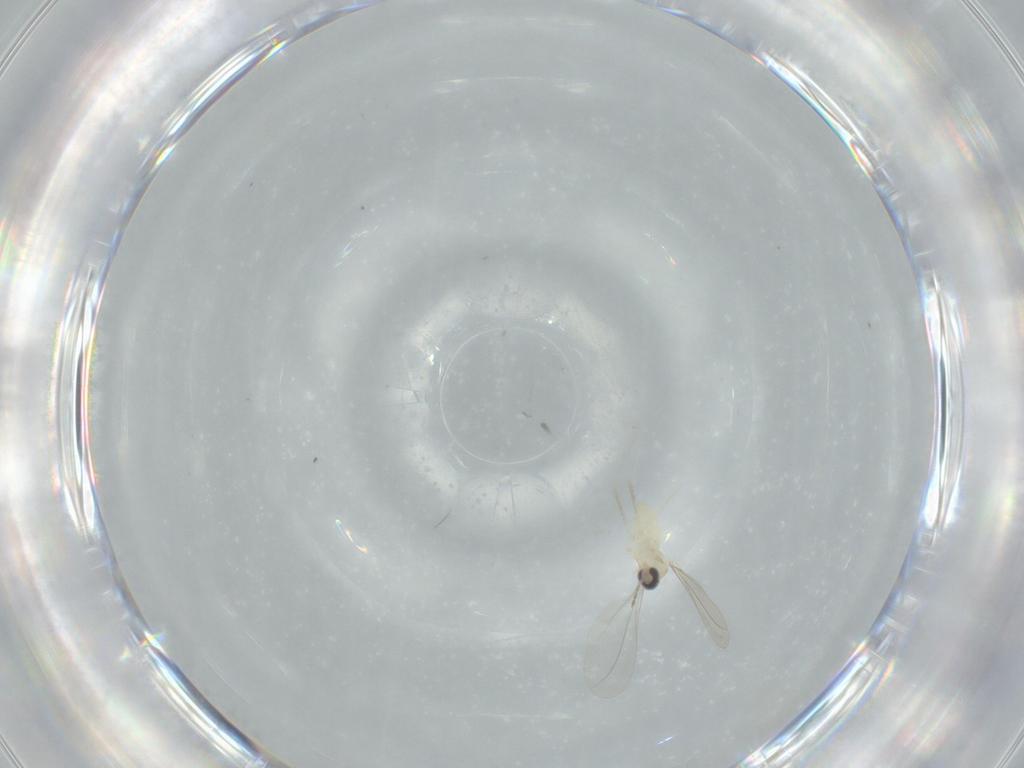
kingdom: Animalia
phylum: Arthropoda
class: Insecta
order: Diptera
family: Cecidomyiidae
